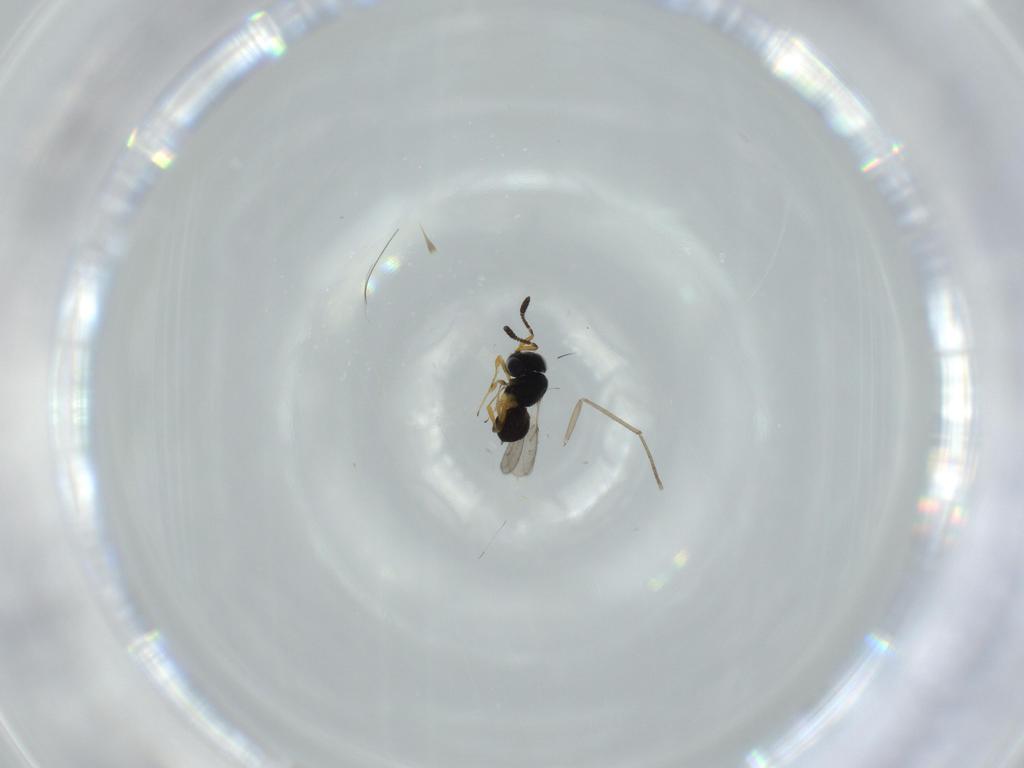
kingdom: Animalia
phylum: Arthropoda
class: Insecta
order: Hymenoptera
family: Scelionidae
